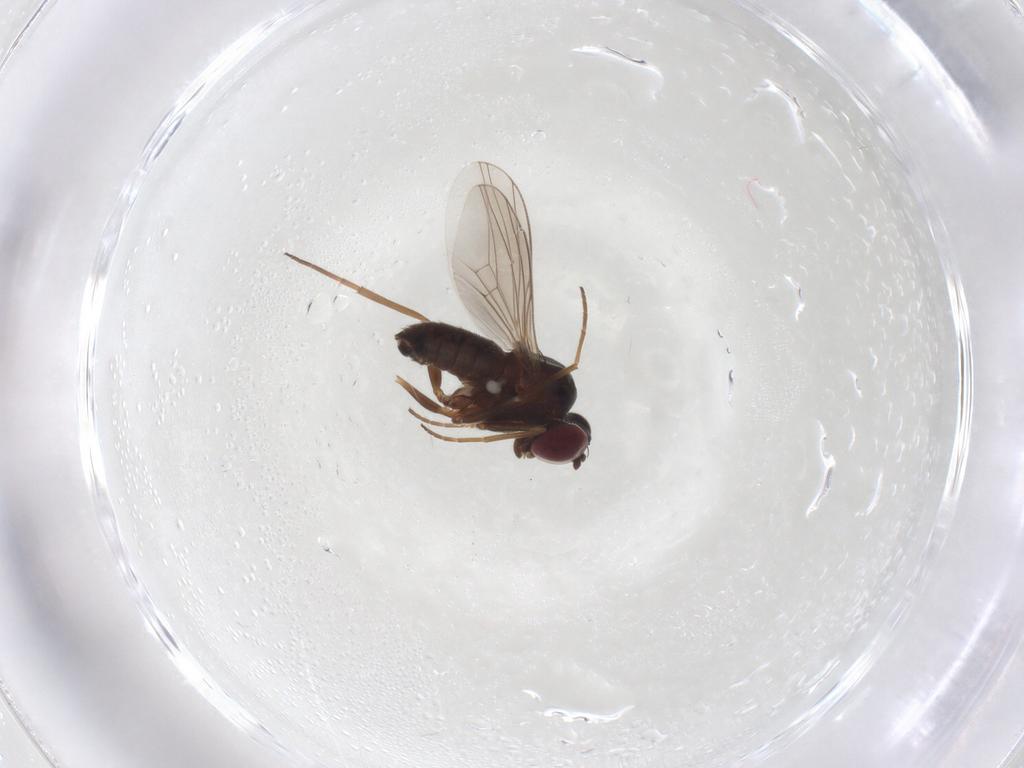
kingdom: Animalia
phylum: Arthropoda
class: Insecta
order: Diptera
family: Dolichopodidae
